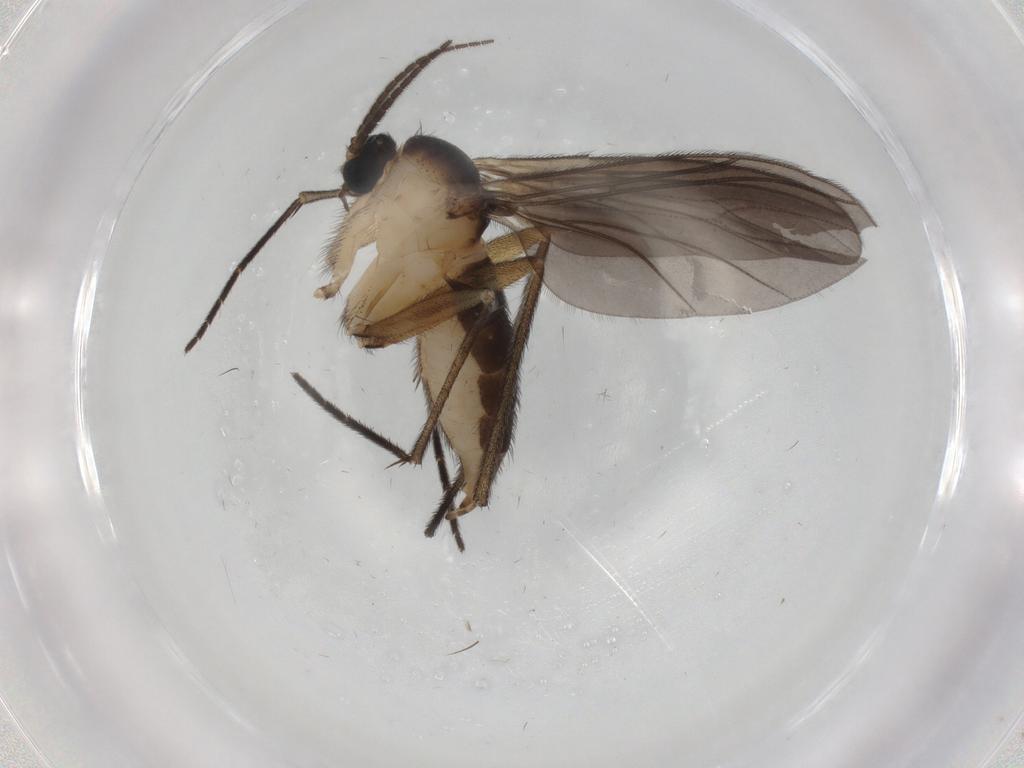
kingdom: Animalia
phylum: Arthropoda
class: Insecta
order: Diptera
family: Sciaridae
